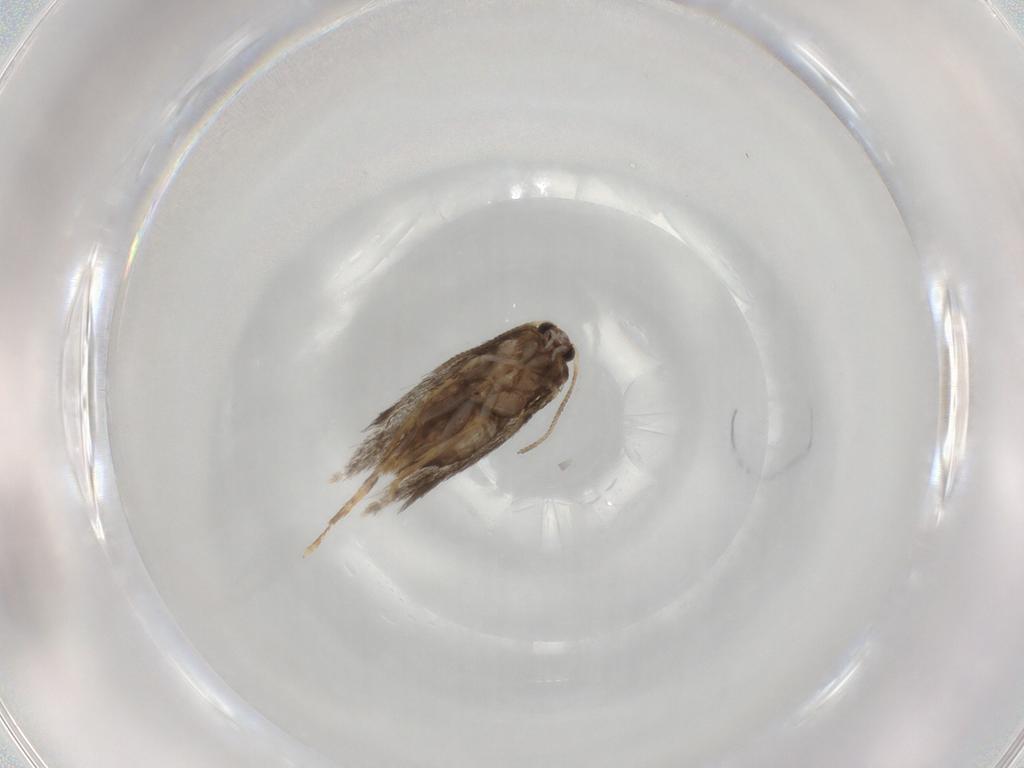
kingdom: Animalia
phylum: Arthropoda
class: Insecta
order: Lepidoptera
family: Nepticulidae
